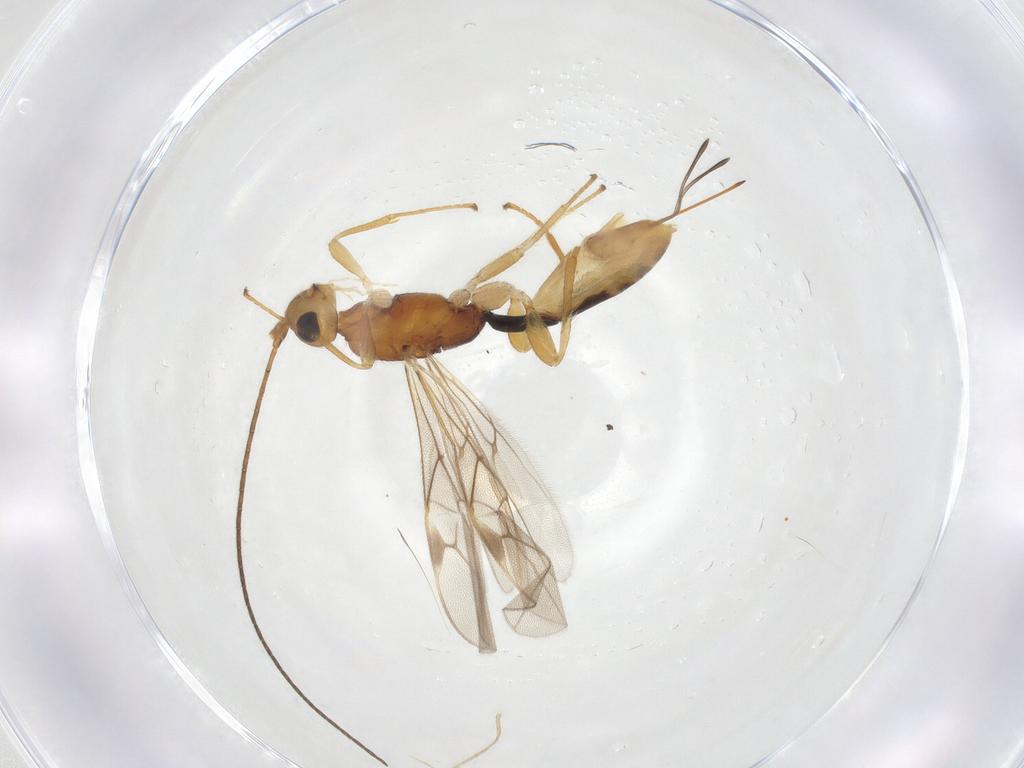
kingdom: Animalia
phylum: Arthropoda
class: Insecta
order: Hymenoptera
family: Braconidae
